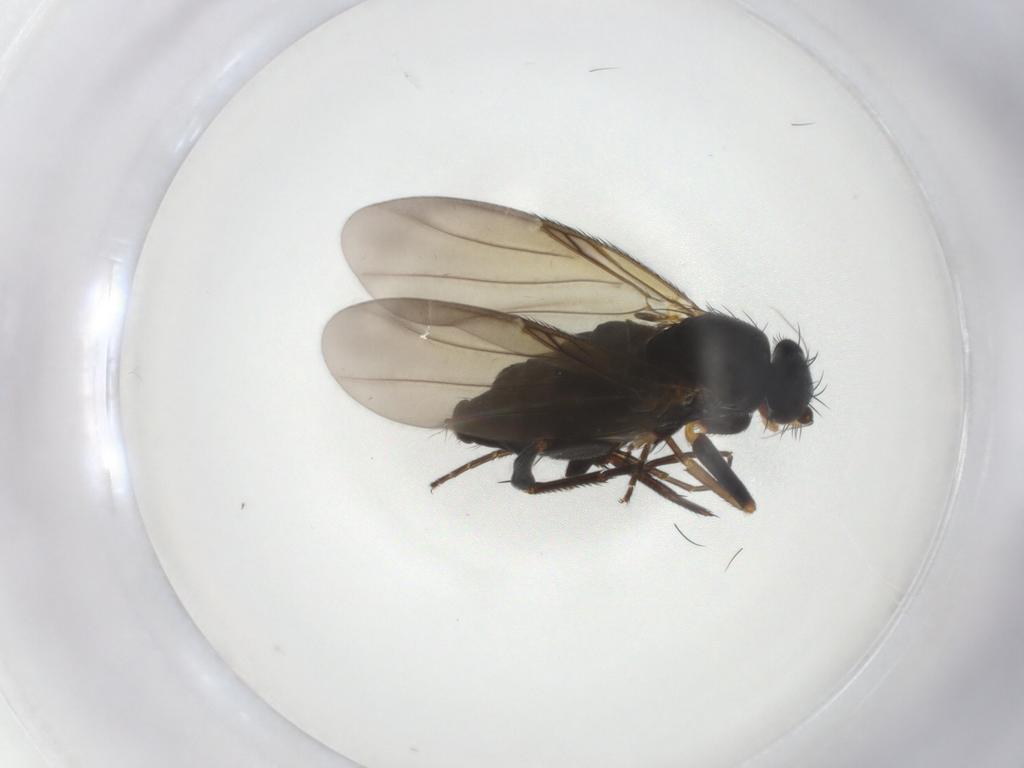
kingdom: Animalia
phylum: Arthropoda
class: Insecta
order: Diptera
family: Phoridae
